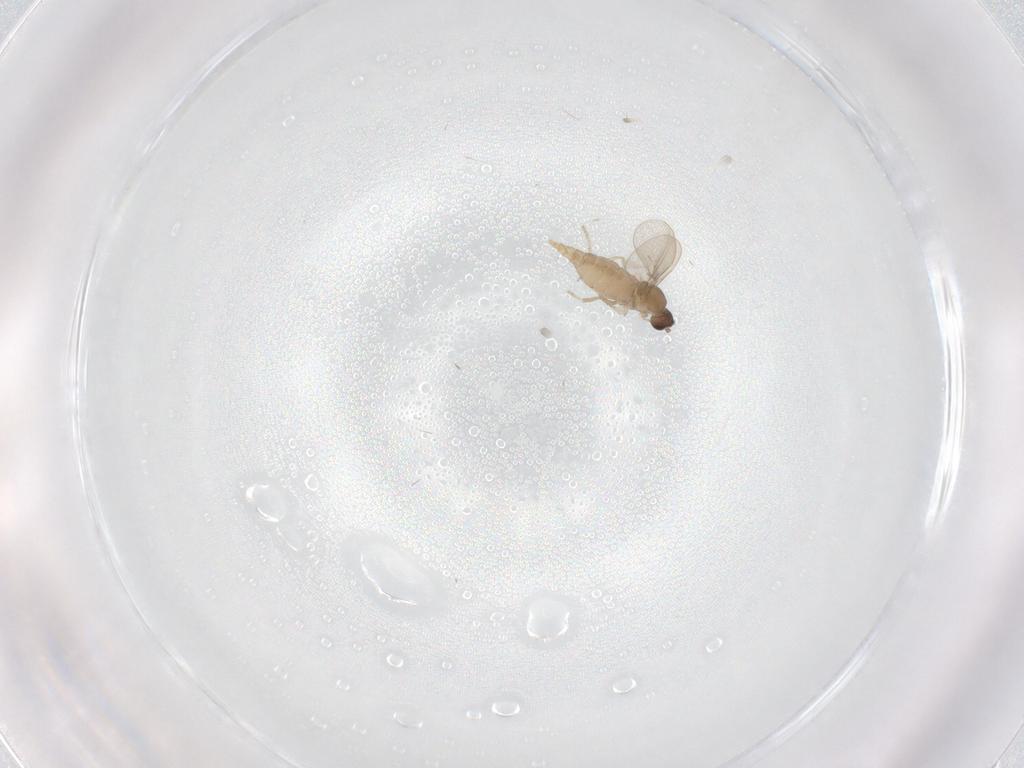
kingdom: Animalia
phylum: Arthropoda
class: Insecta
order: Diptera
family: Cecidomyiidae
